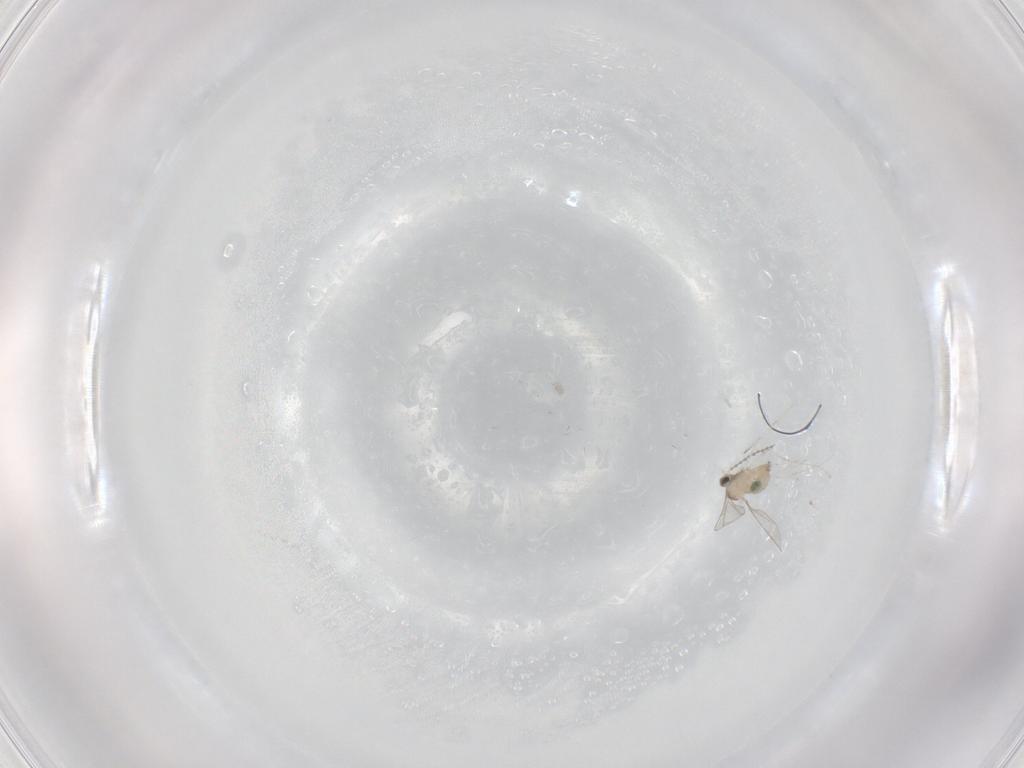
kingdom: Animalia
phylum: Arthropoda
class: Insecta
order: Diptera
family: Cecidomyiidae
